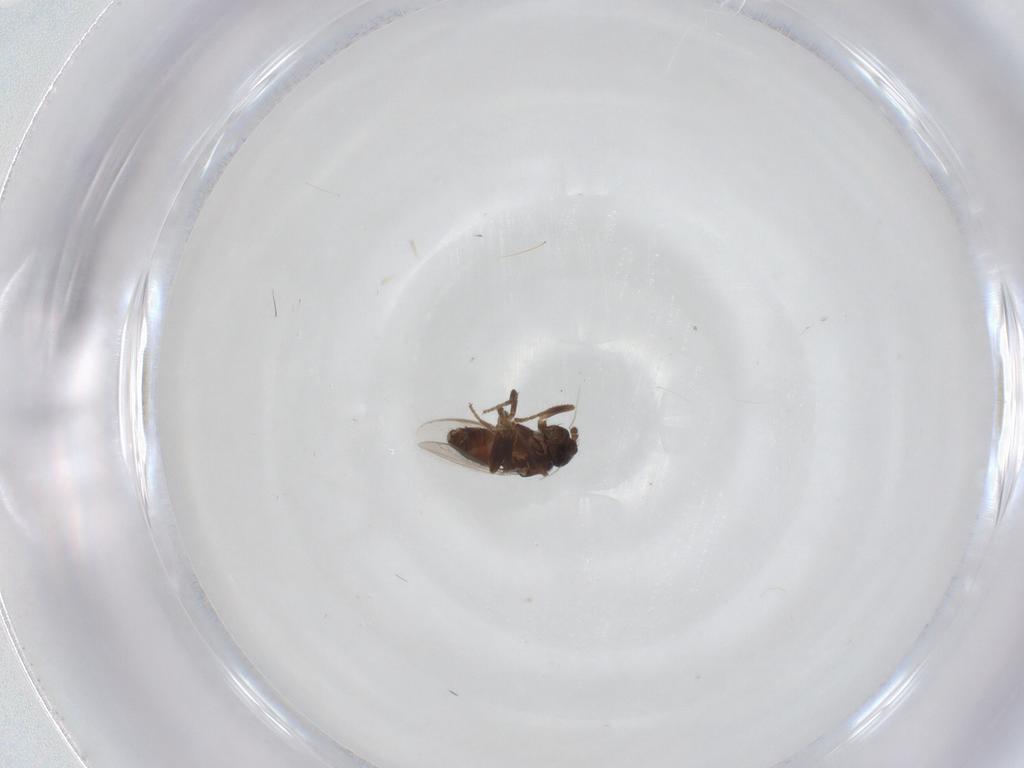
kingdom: Animalia
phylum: Arthropoda
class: Insecta
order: Diptera
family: Sphaeroceridae
